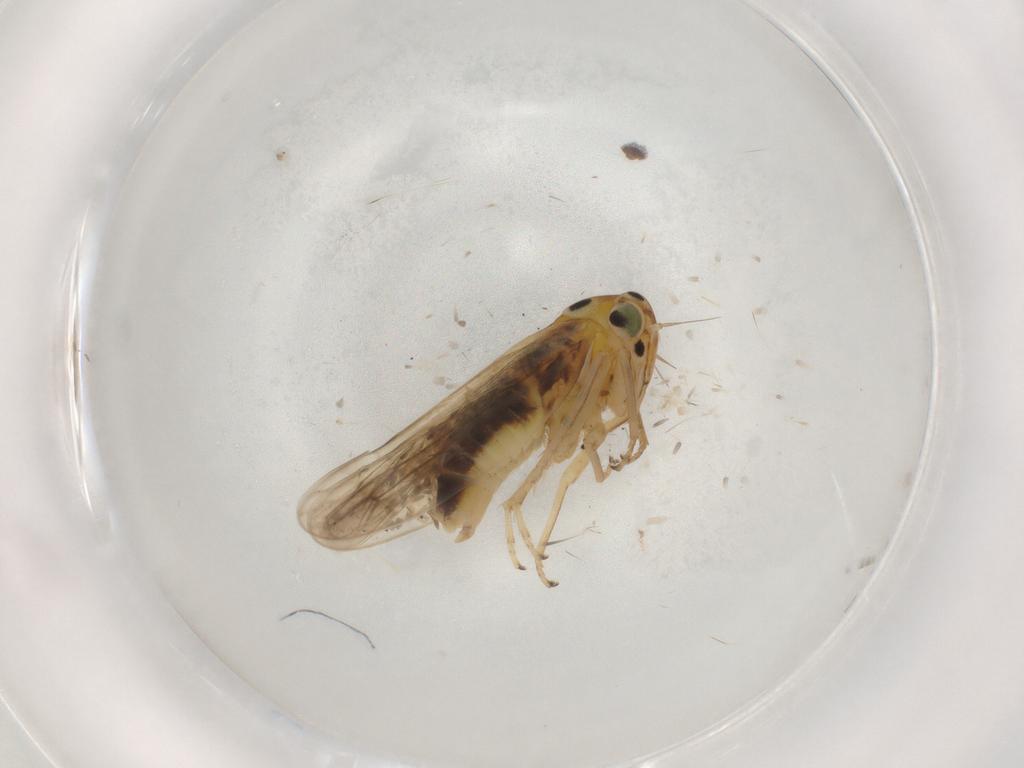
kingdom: Animalia
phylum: Arthropoda
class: Insecta
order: Hemiptera
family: Cicadellidae
